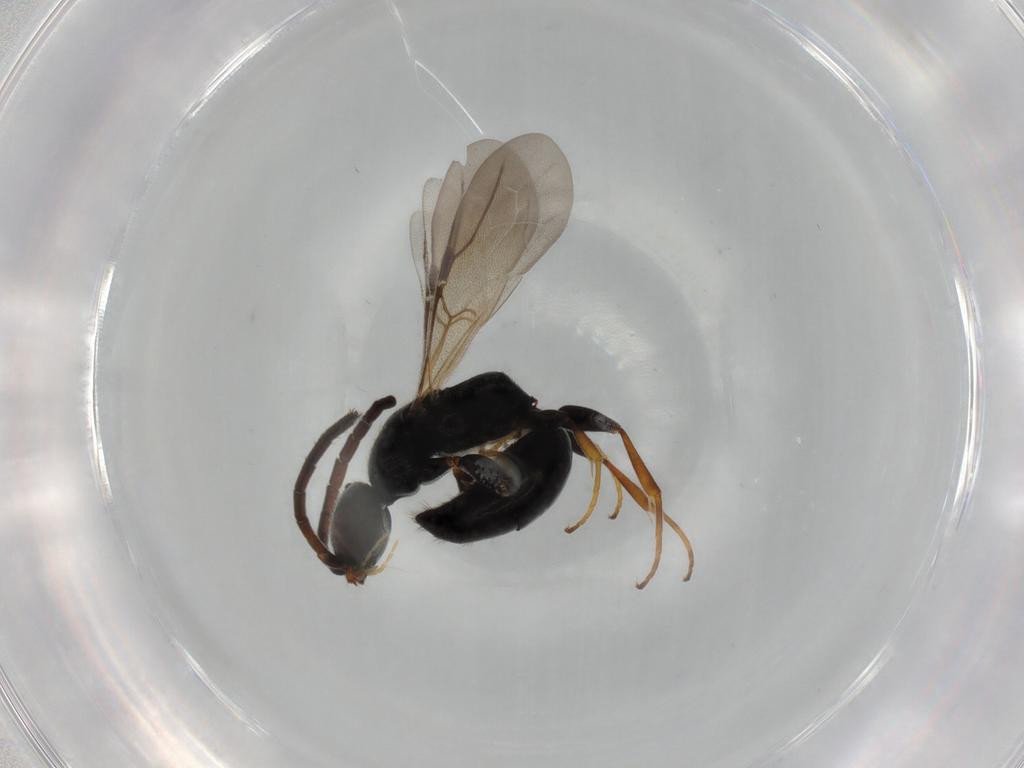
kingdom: Animalia
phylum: Arthropoda
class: Insecta
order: Hymenoptera
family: Bethylidae
